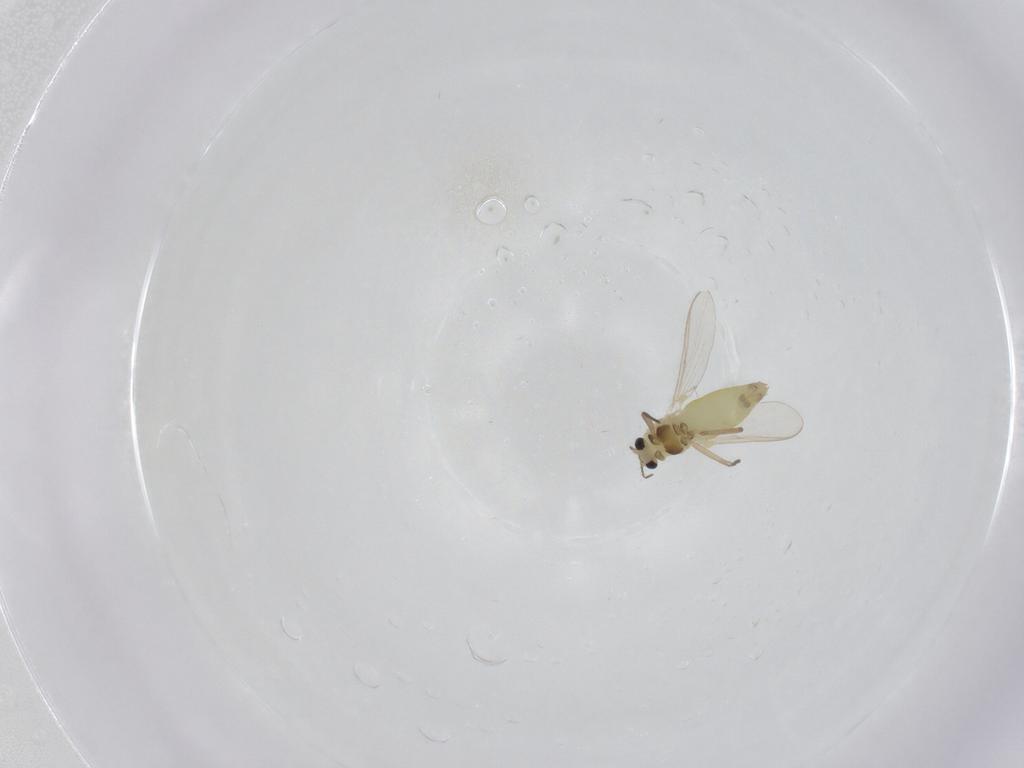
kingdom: Animalia
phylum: Arthropoda
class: Insecta
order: Diptera
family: Chironomidae
